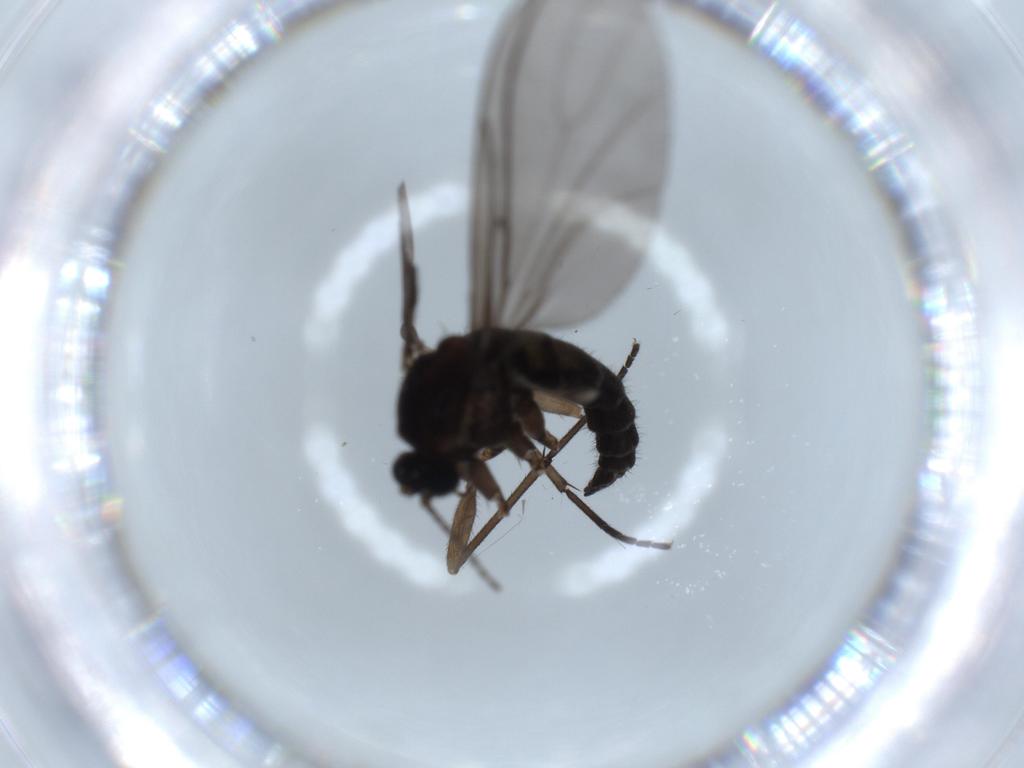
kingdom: Animalia
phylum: Arthropoda
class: Insecta
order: Diptera
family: Sciaridae
